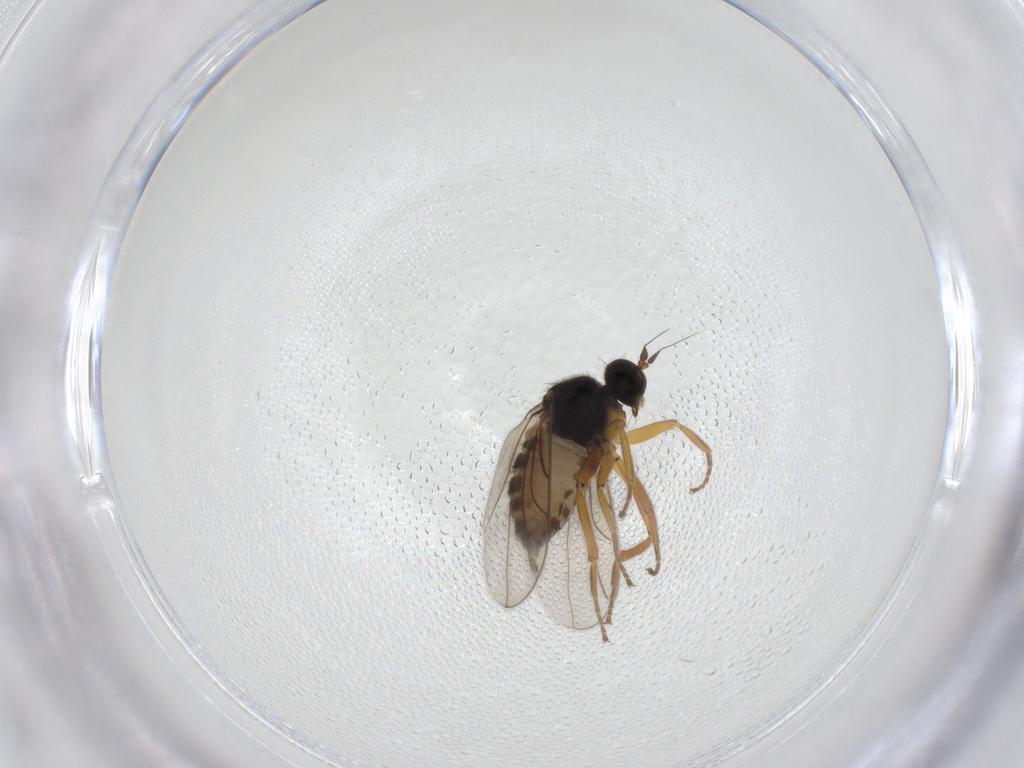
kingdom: Animalia
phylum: Arthropoda
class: Insecta
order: Diptera
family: Hybotidae
